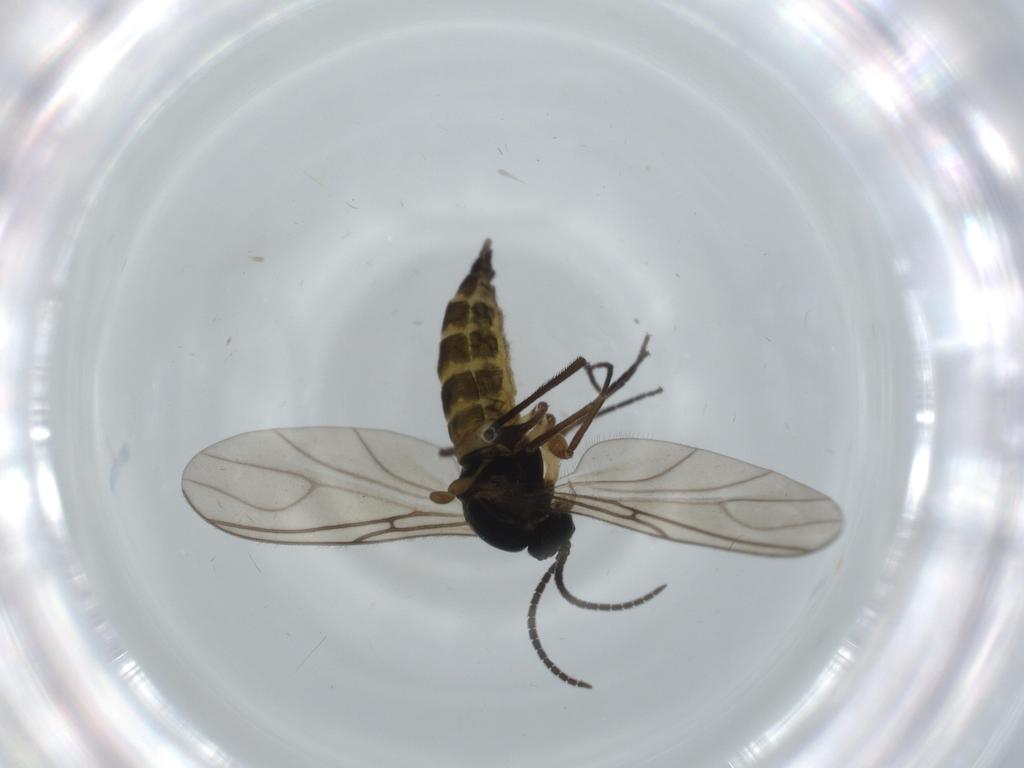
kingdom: Animalia
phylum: Arthropoda
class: Insecta
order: Diptera
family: Sciaridae
